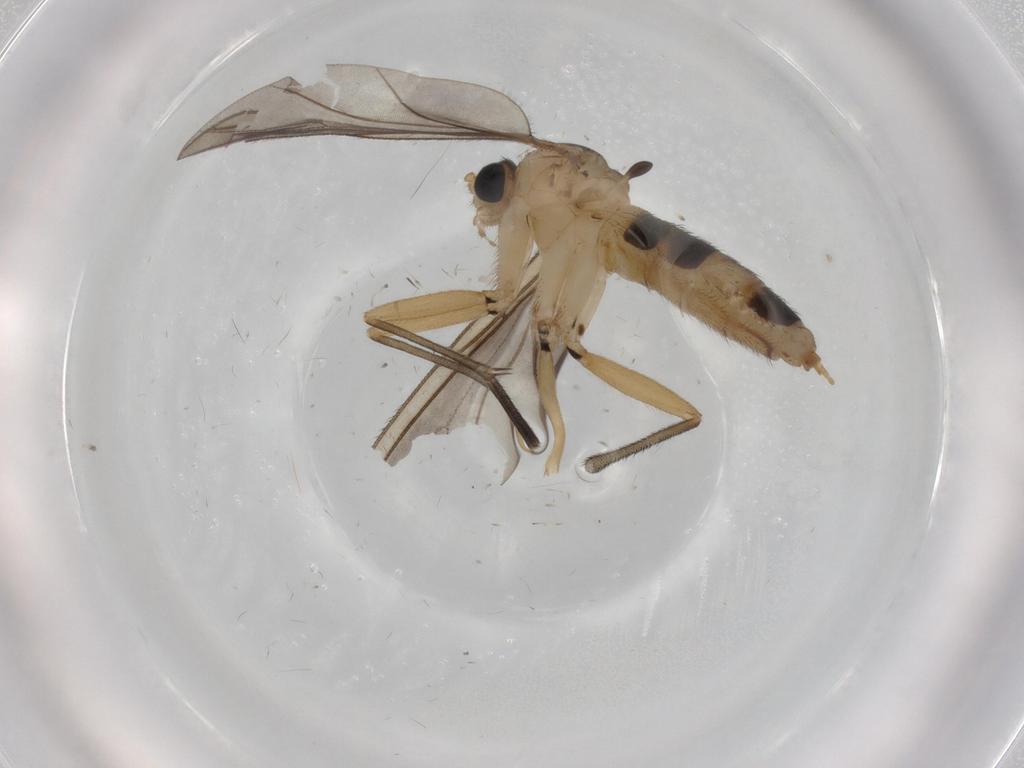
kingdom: Animalia
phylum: Arthropoda
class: Insecta
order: Diptera
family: Sciaridae
